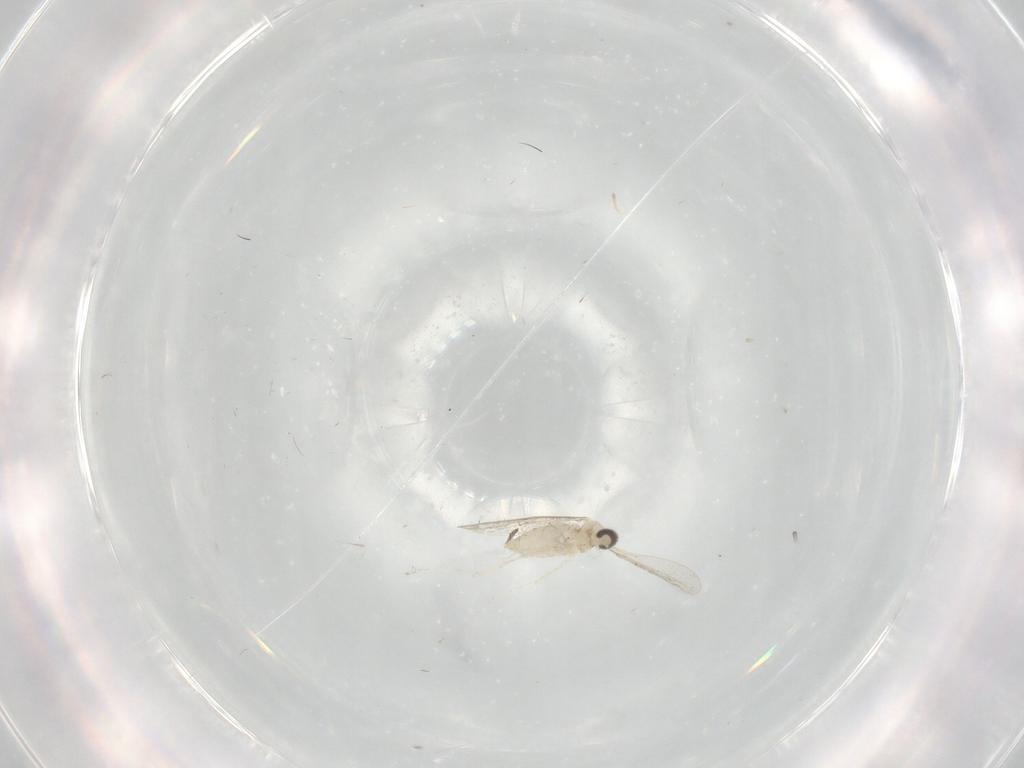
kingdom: Animalia
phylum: Arthropoda
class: Insecta
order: Diptera
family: Cecidomyiidae
